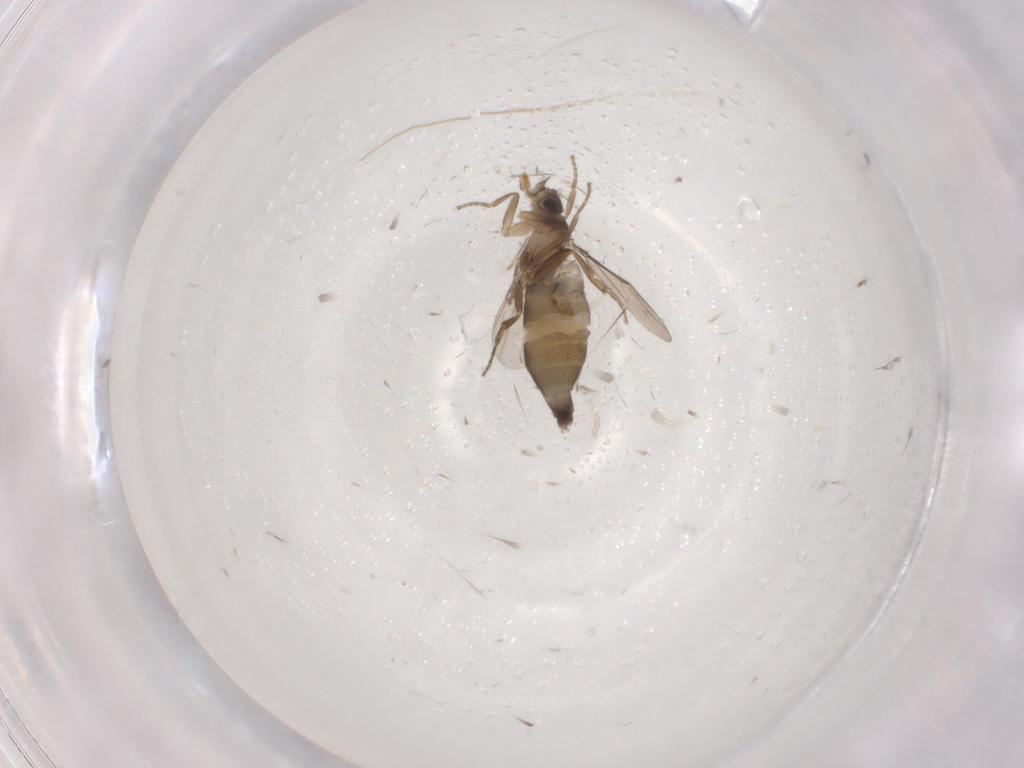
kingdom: Animalia
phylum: Arthropoda
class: Insecta
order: Diptera
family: Phoridae
